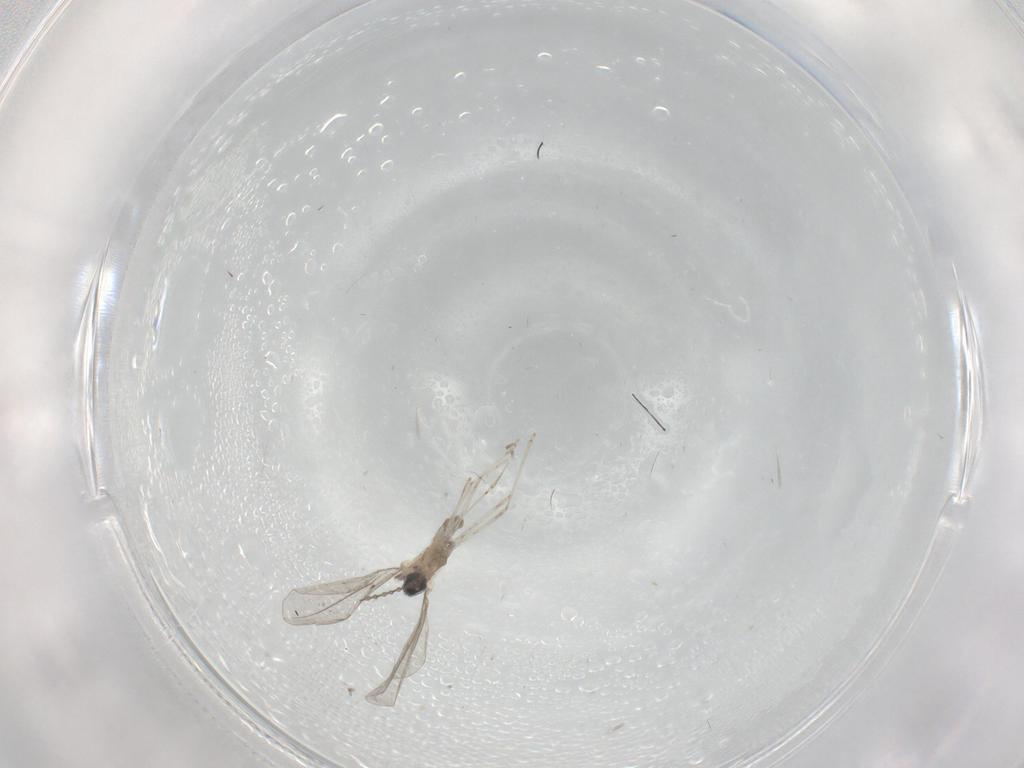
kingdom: Animalia
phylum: Arthropoda
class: Insecta
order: Diptera
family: Cecidomyiidae
